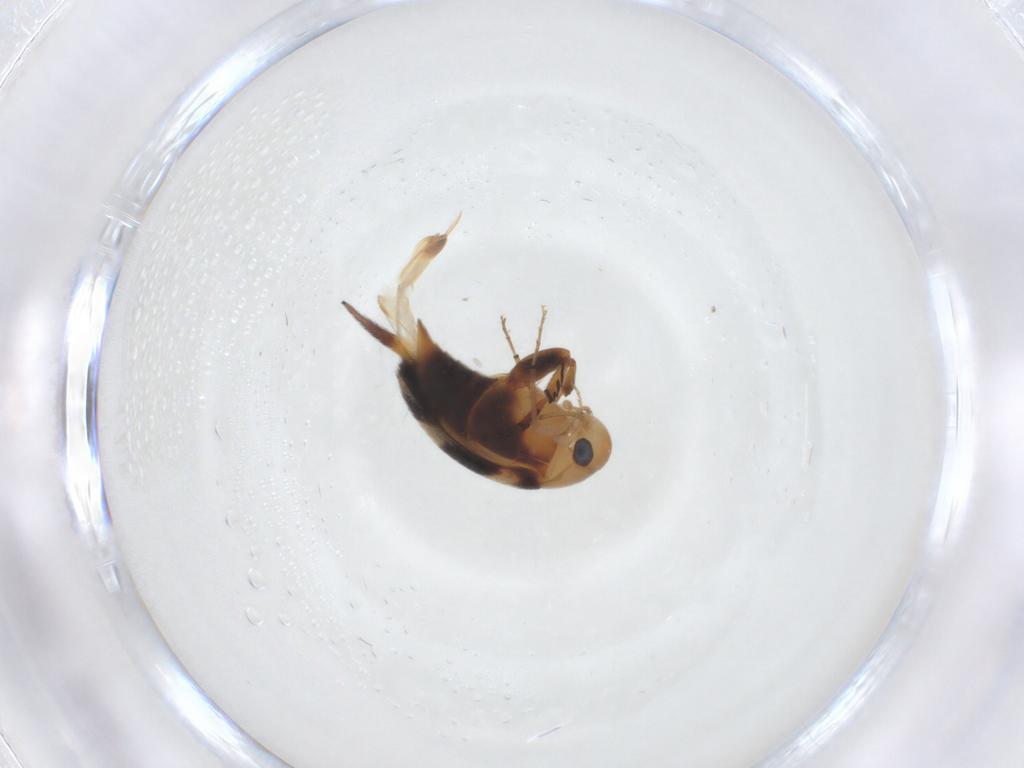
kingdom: Animalia
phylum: Arthropoda
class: Insecta
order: Coleoptera
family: Mordellidae
